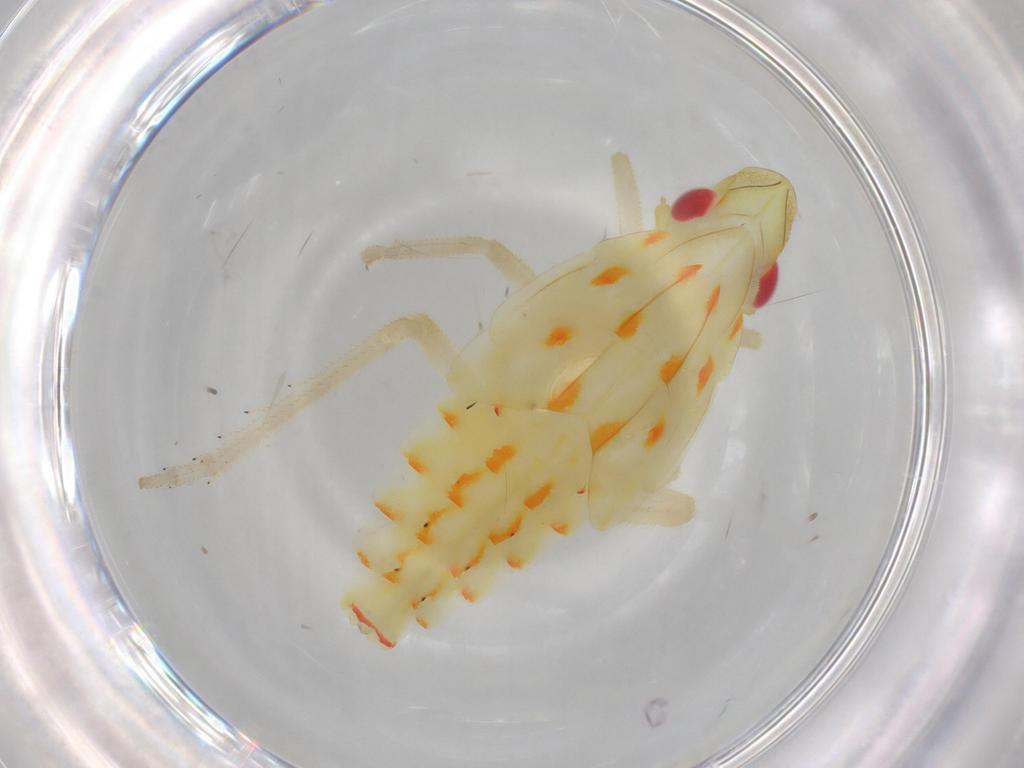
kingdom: Animalia
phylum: Arthropoda
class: Insecta
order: Hemiptera
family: Tropiduchidae
